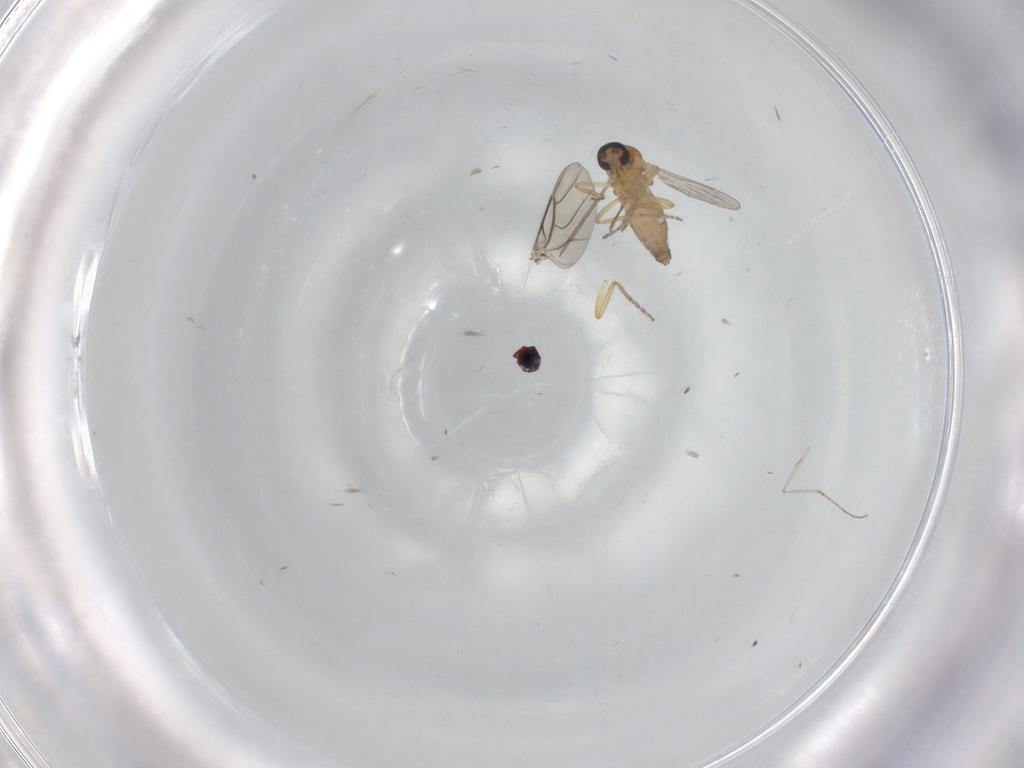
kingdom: Animalia
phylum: Arthropoda
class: Insecta
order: Diptera
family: Cecidomyiidae
